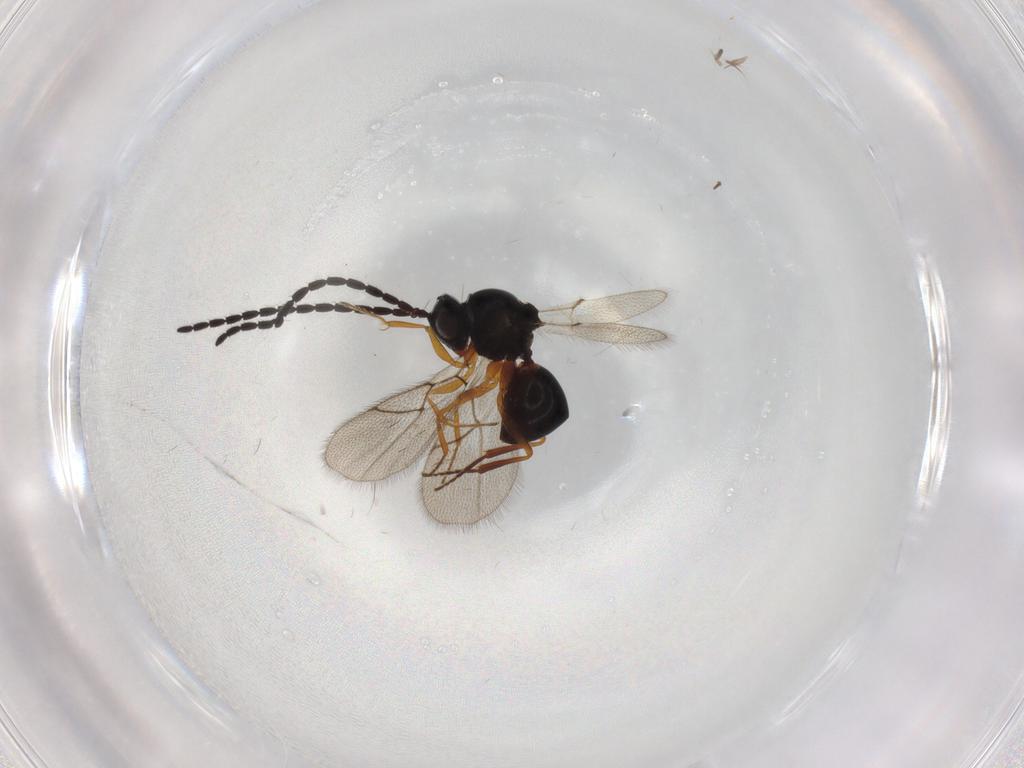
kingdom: Animalia
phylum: Arthropoda
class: Insecta
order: Hymenoptera
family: Figitidae
